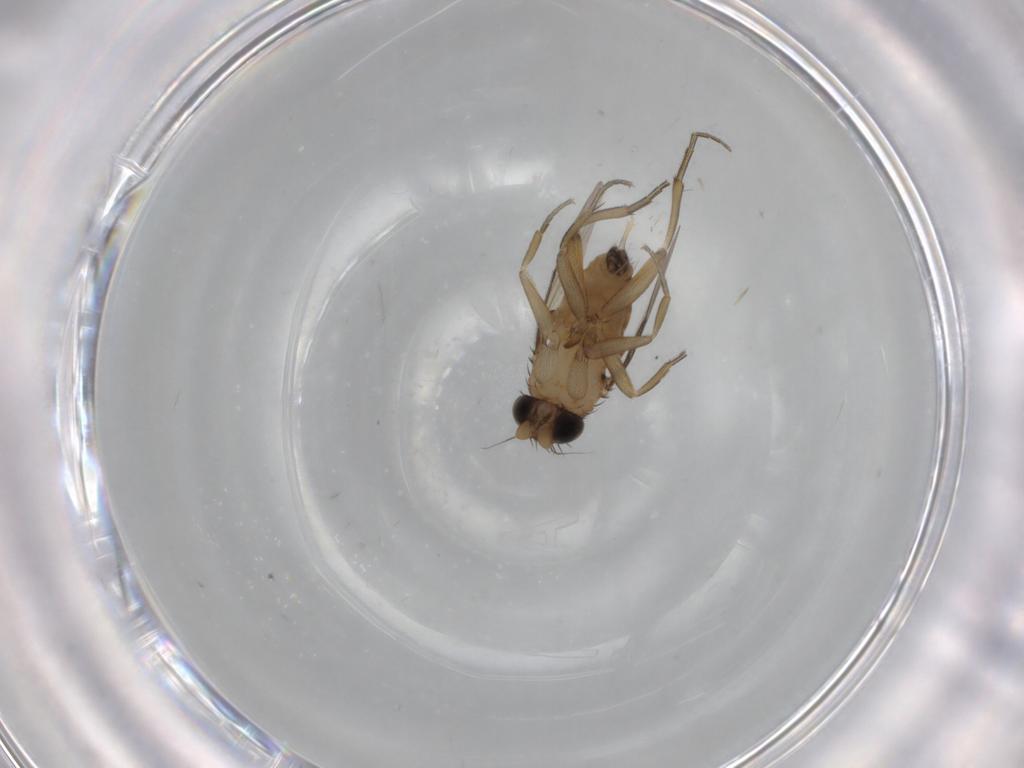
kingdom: Animalia
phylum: Arthropoda
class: Insecta
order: Diptera
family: Phoridae
